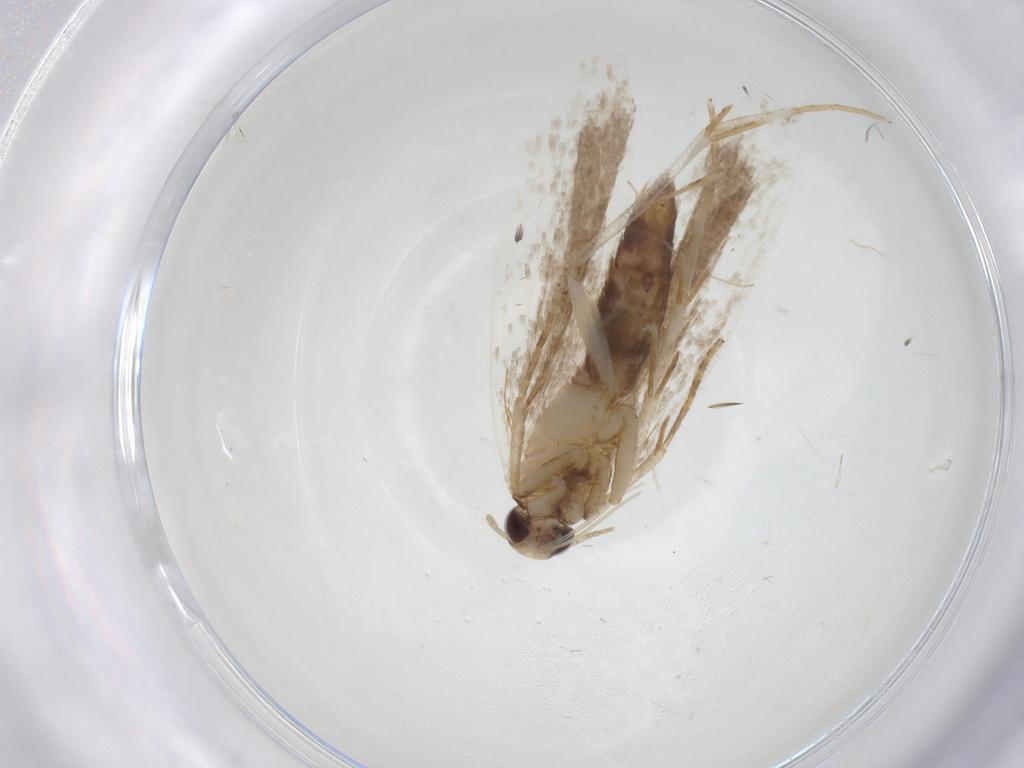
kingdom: Animalia
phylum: Arthropoda
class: Insecta
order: Lepidoptera
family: Gelechiidae
